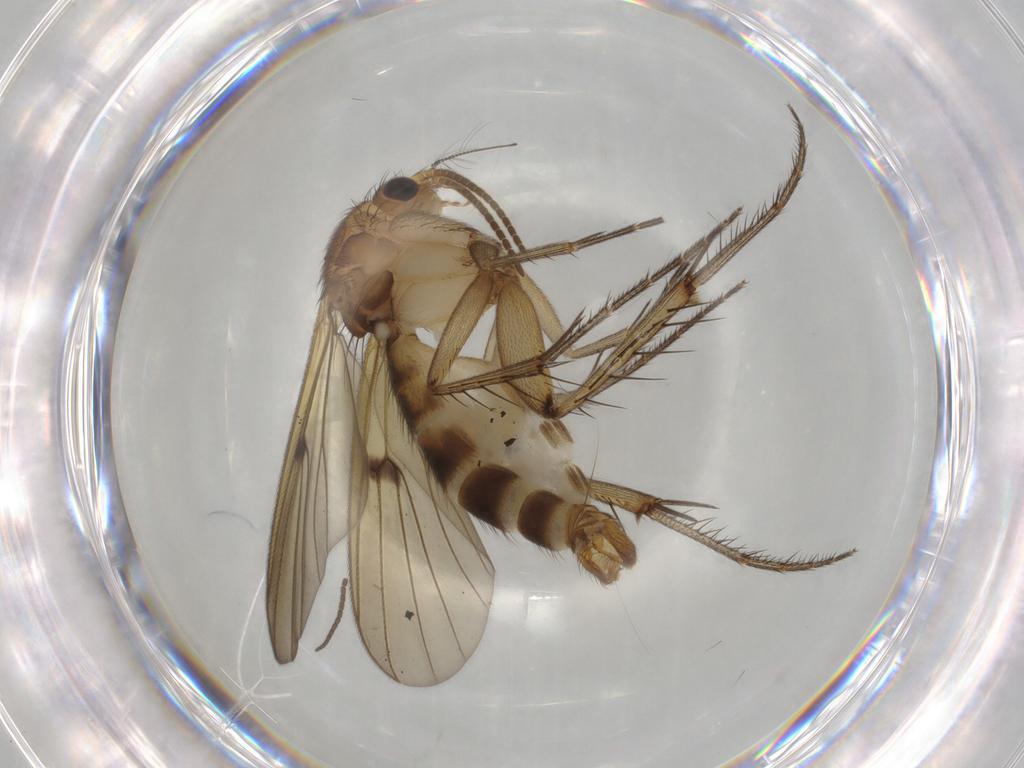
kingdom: Animalia
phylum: Arthropoda
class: Insecta
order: Diptera
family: Mycetophilidae
